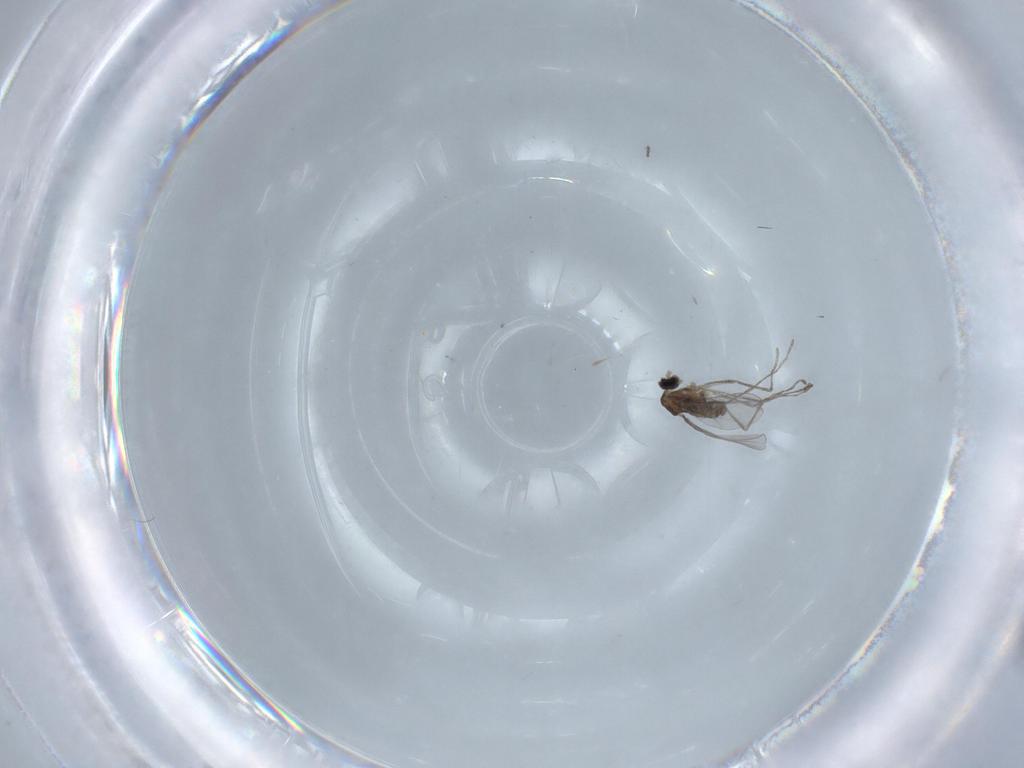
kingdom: Animalia
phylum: Arthropoda
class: Insecta
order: Diptera
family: Cecidomyiidae
